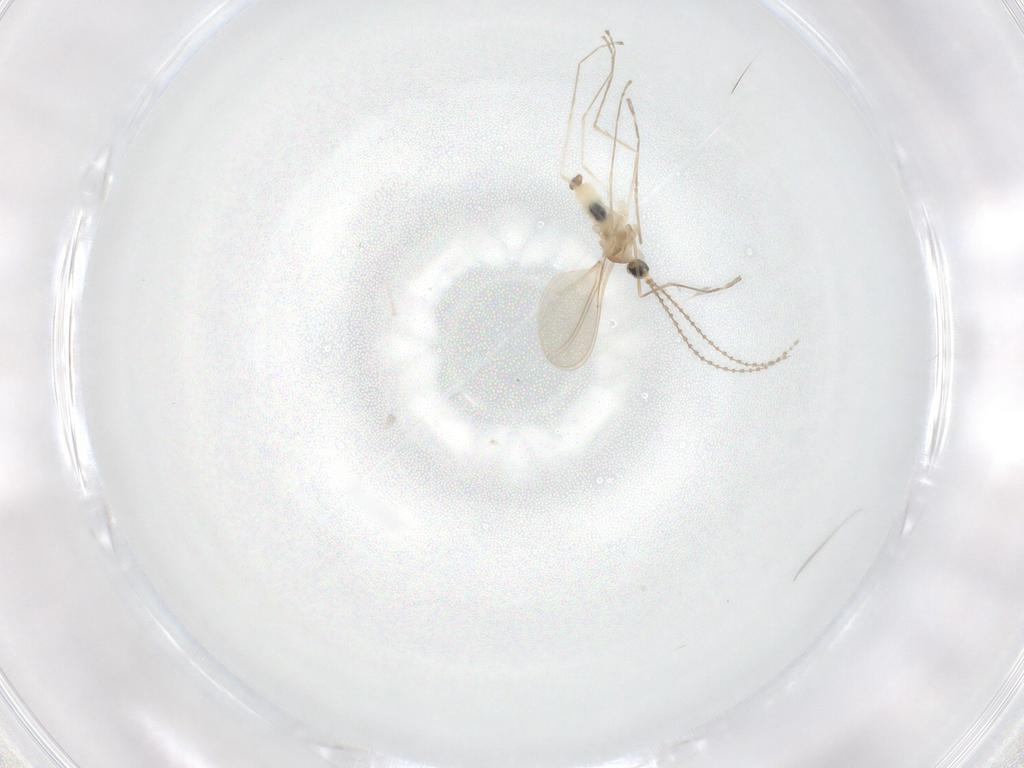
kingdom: Animalia
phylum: Arthropoda
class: Insecta
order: Diptera
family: Cecidomyiidae
